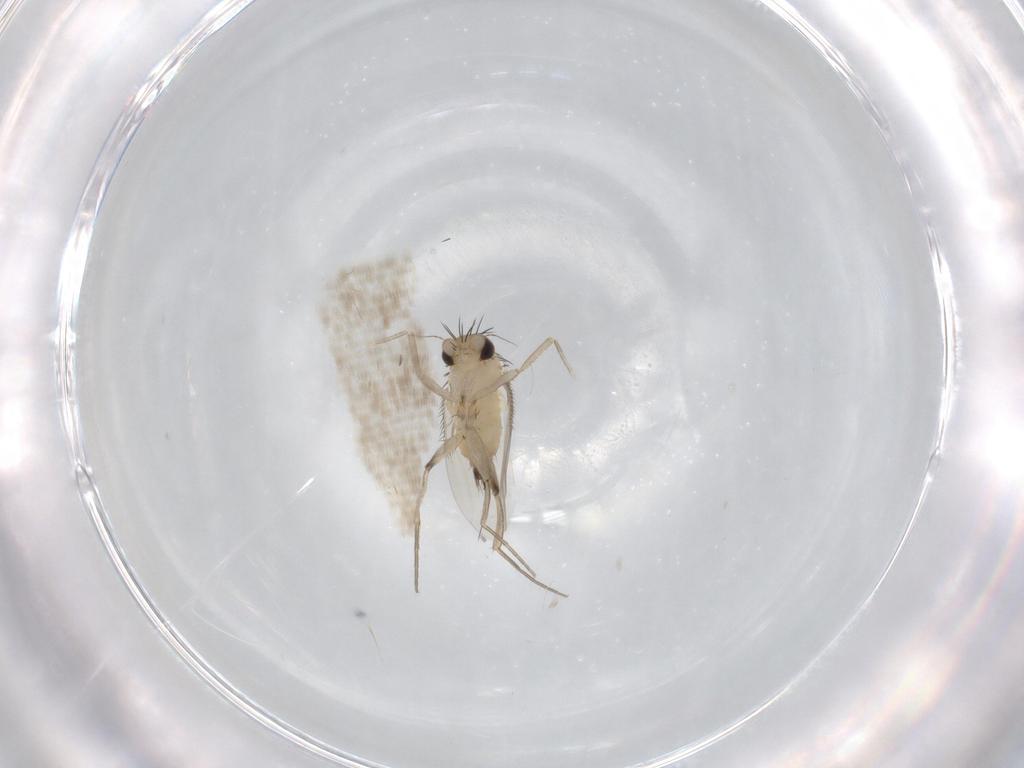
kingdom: Animalia
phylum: Arthropoda
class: Insecta
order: Diptera
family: Phoridae
